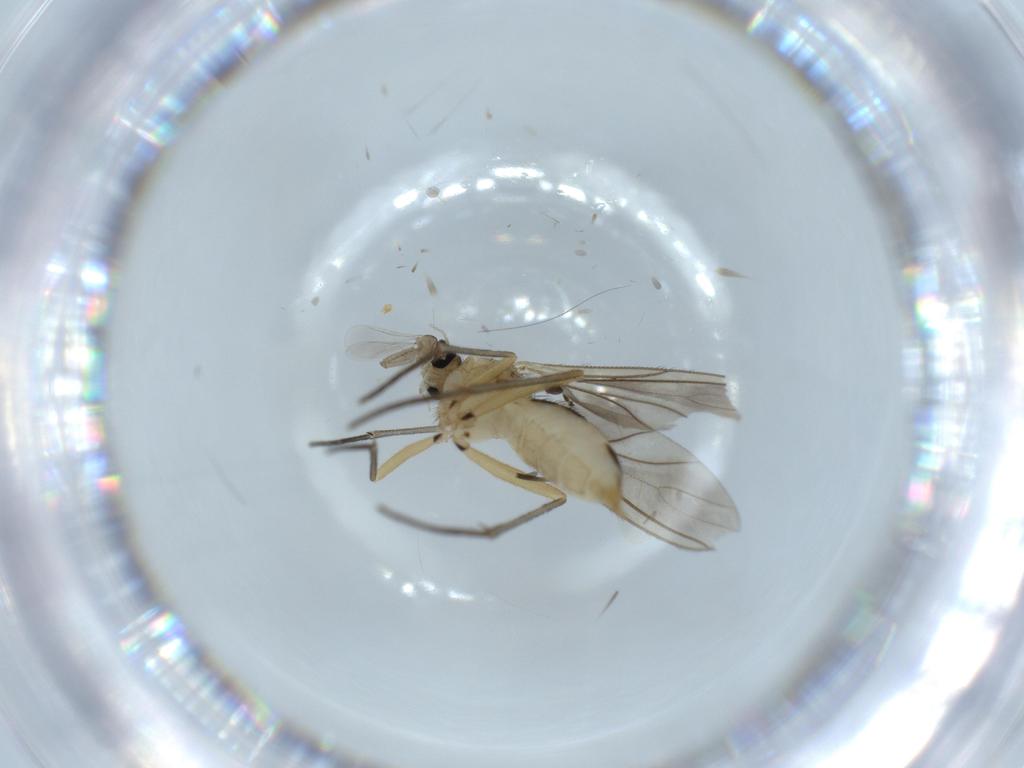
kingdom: Animalia
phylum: Arthropoda
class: Insecta
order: Diptera
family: Sciaridae
